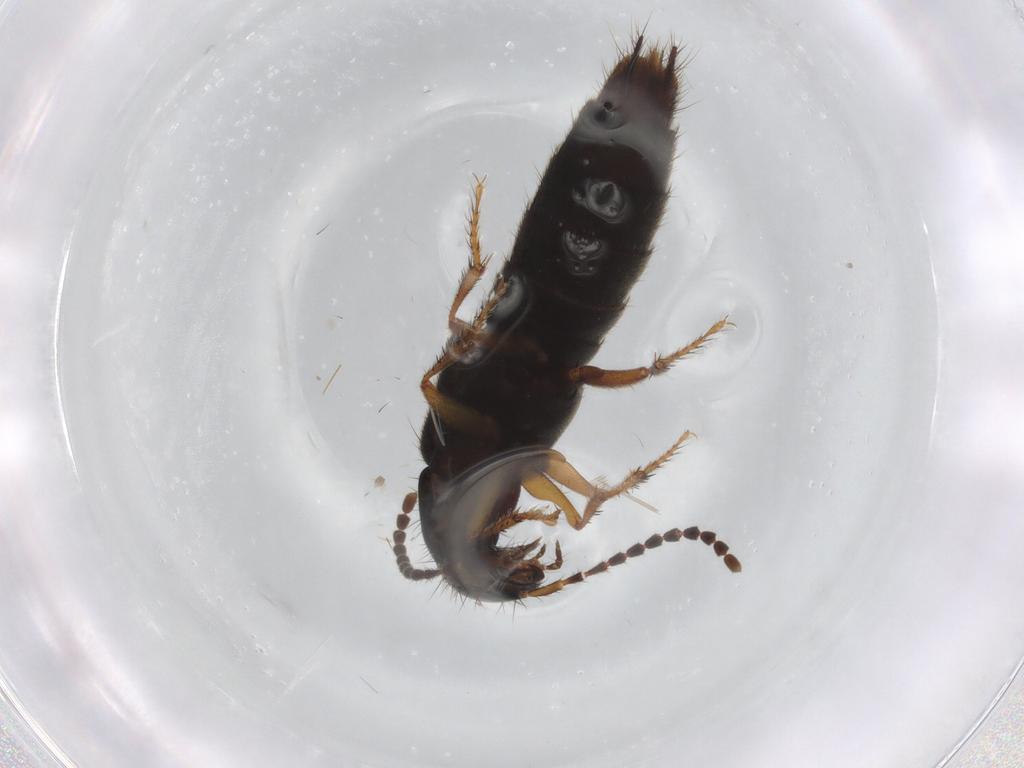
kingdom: Animalia
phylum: Arthropoda
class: Insecta
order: Coleoptera
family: Staphylinidae
